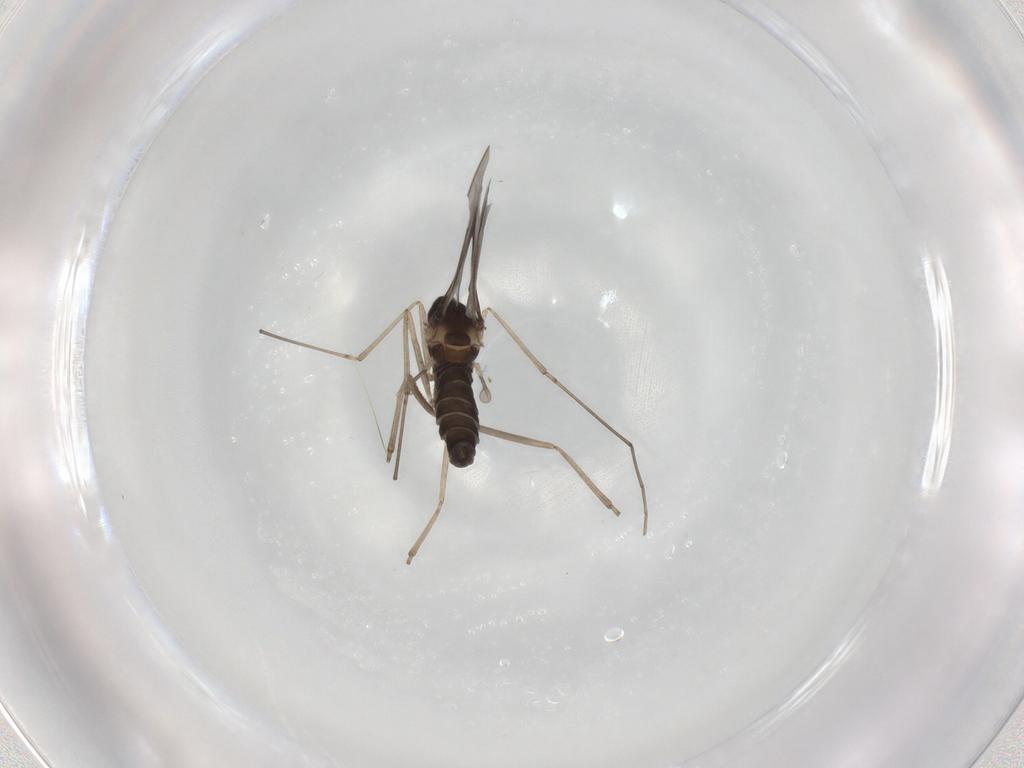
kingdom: Animalia
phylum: Arthropoda
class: Insecta
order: Diptera
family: Cecidomyiidae
